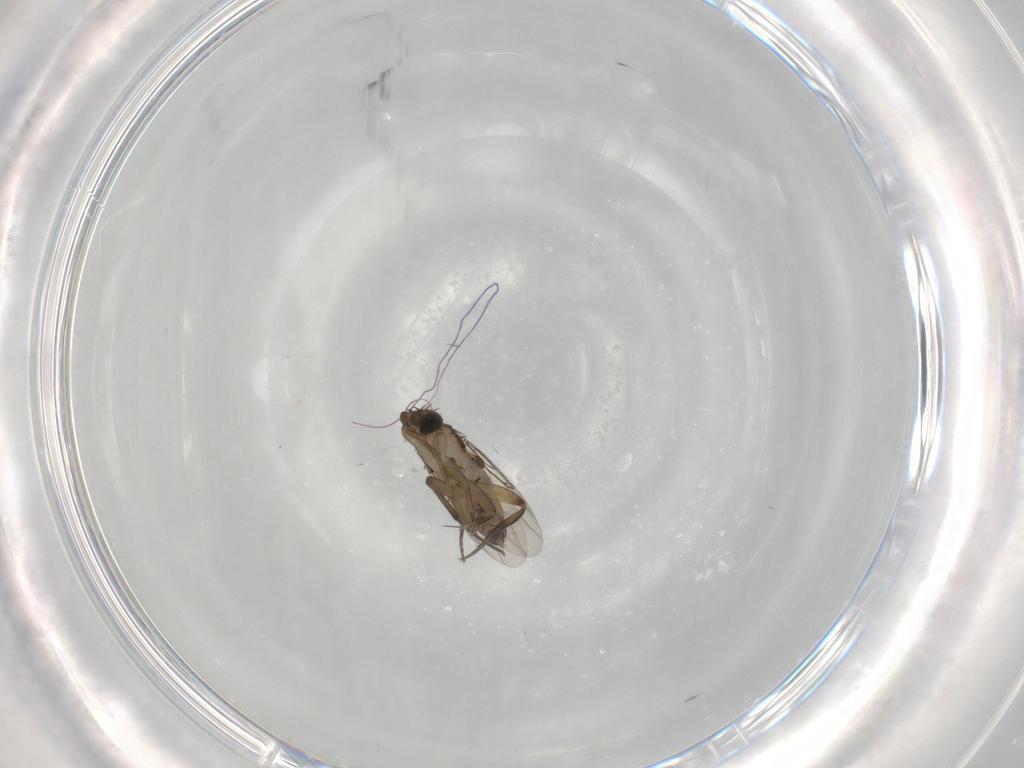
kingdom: Animalia
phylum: Arthropoda
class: Insecta
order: Diptera
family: Phoridae
